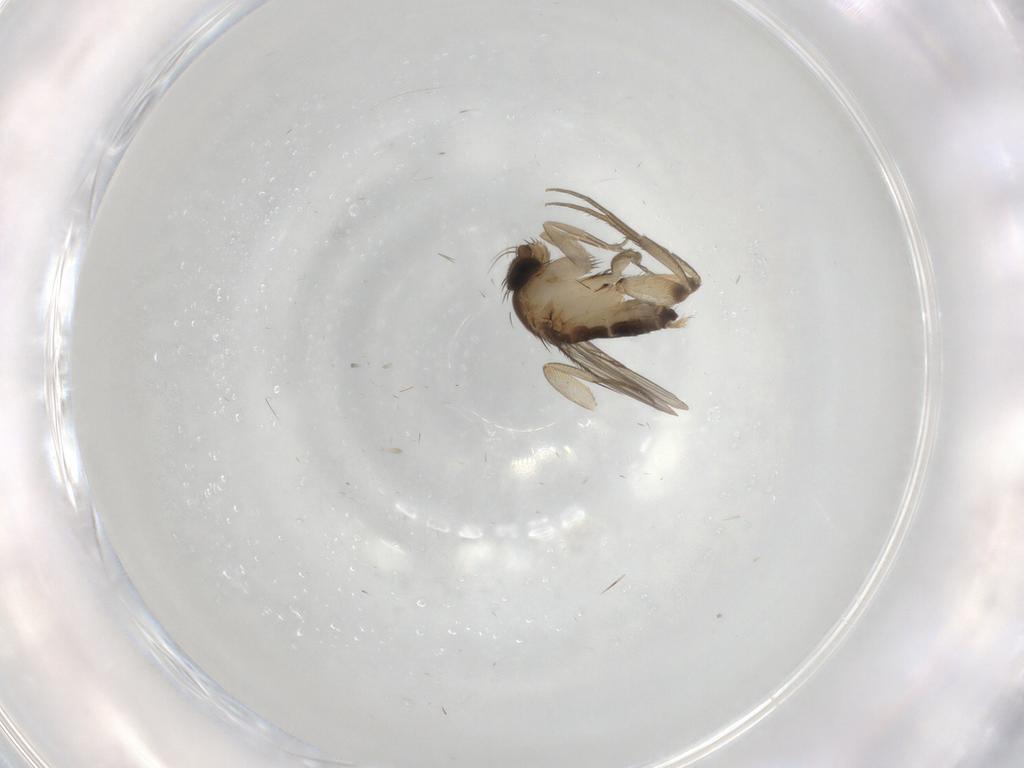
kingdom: Animalia
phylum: Arthropoda
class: Insecta
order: Diptera
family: Phoridae
